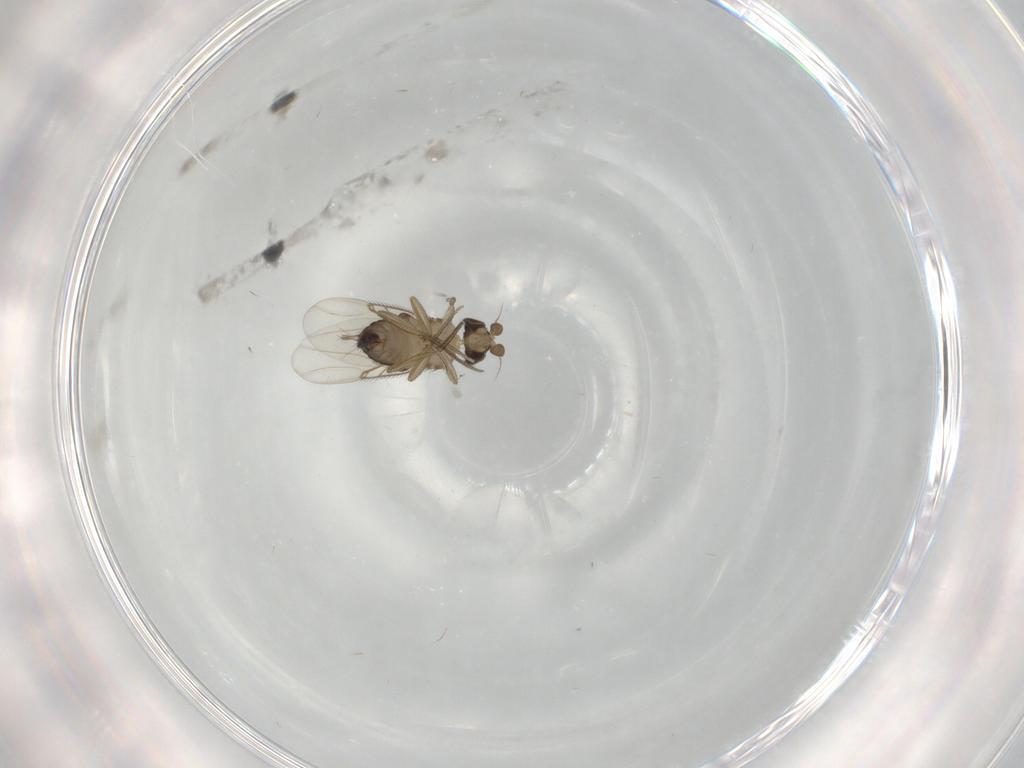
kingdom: Animalia
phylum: Arthropoda
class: Insecta
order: Diptera
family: Phoridae
